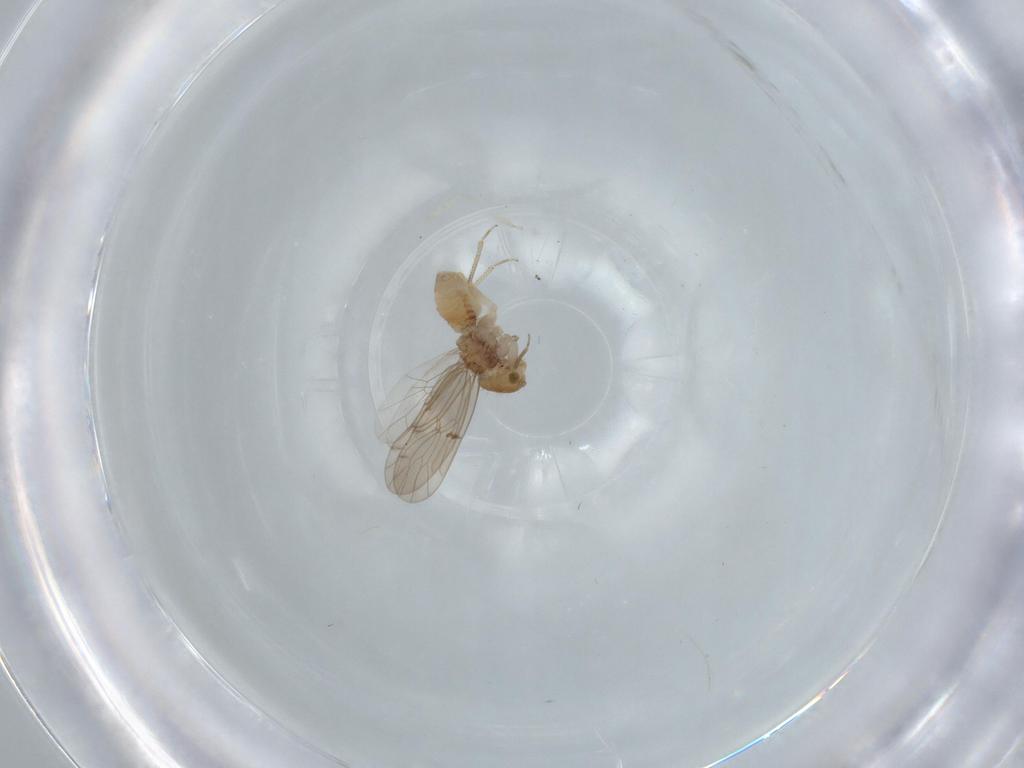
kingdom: Animalia
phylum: Arthropoda
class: Insecta
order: Psocodea
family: Ectopsocidae
